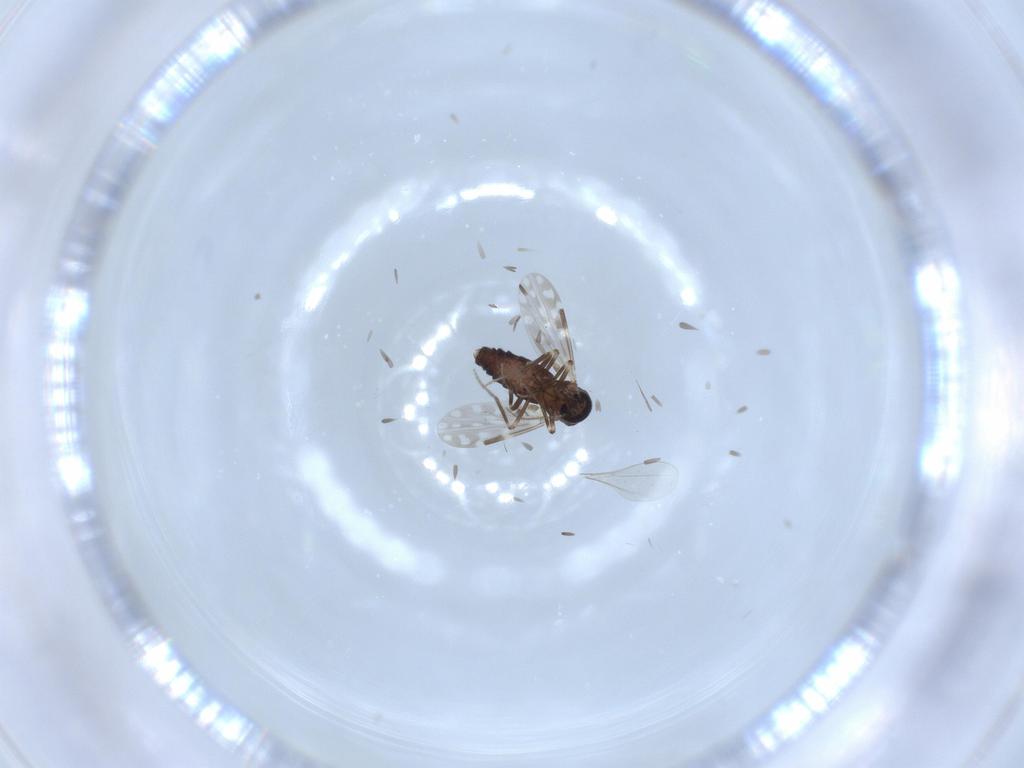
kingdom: Animalia
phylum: Arthropoda
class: Insecta
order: Diptera
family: Ceratopogonidae
